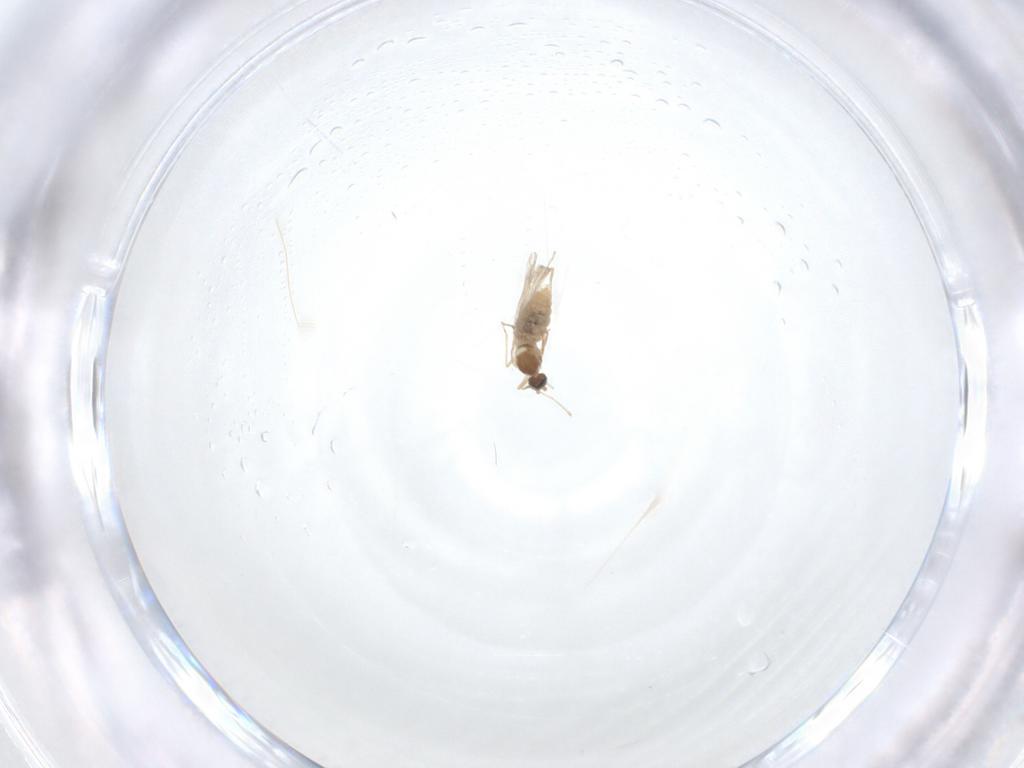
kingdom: Animalia
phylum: Arthropoda
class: Insecta
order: Diptera
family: Cecidomyiidae
